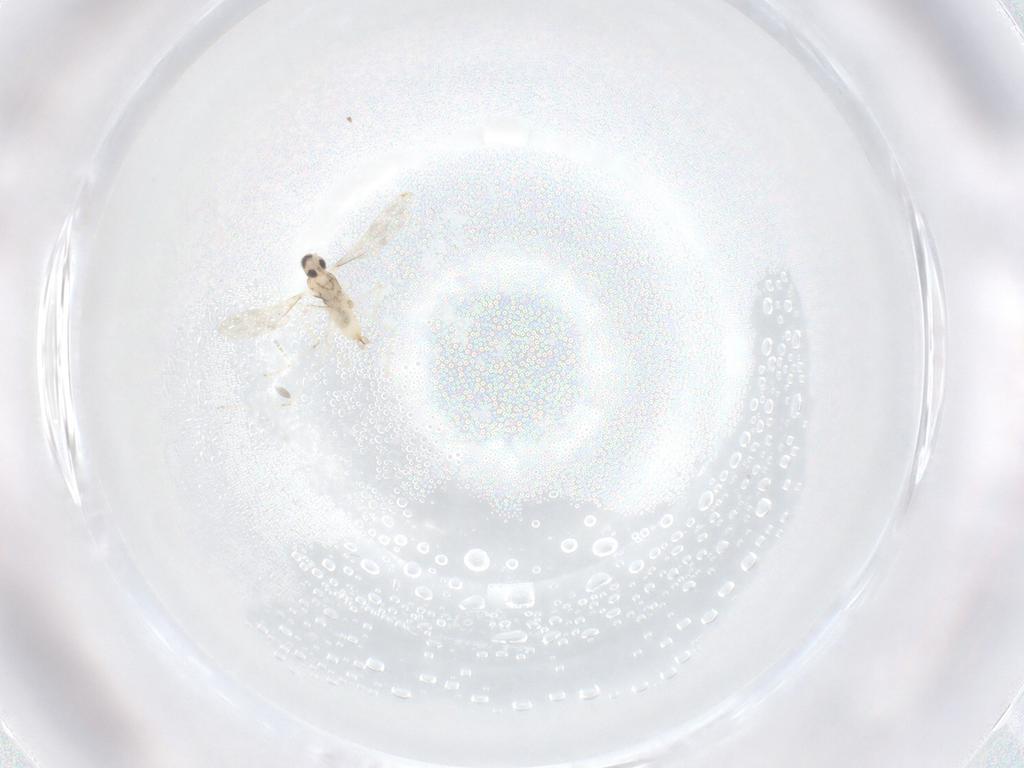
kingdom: Animalia
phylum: Arthropoda
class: Insecta
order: Diptera
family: Cecidomyiidae
